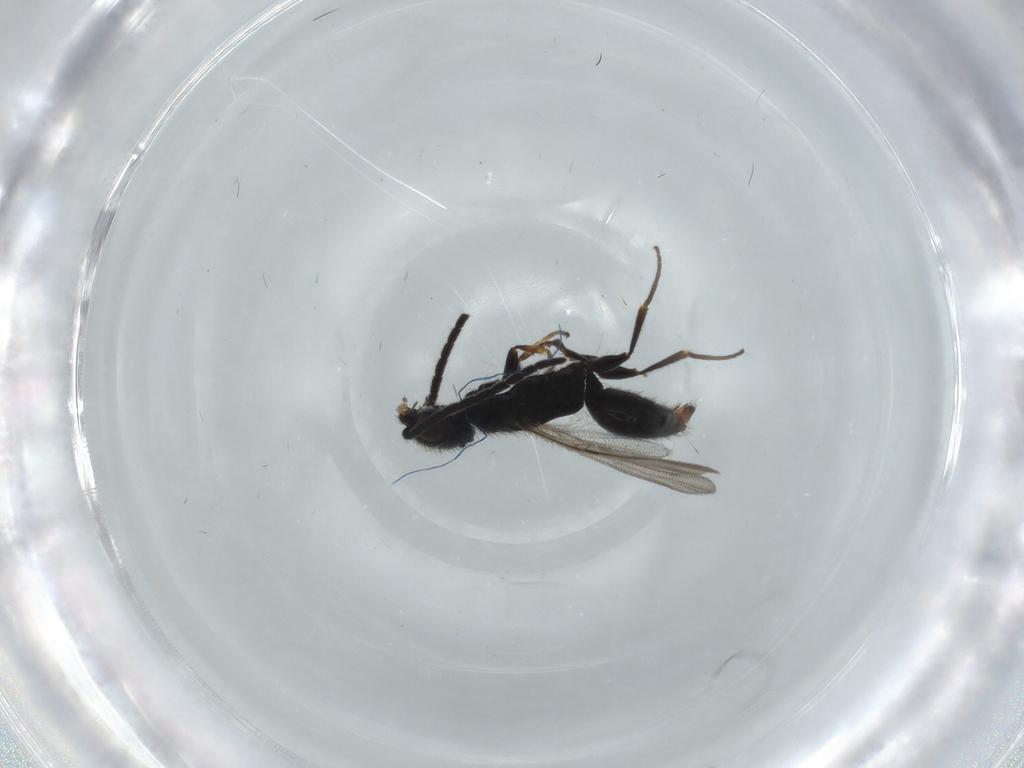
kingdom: Animalia
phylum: Arthropoda
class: Insecta
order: Hymenoptera
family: Bethylidae
